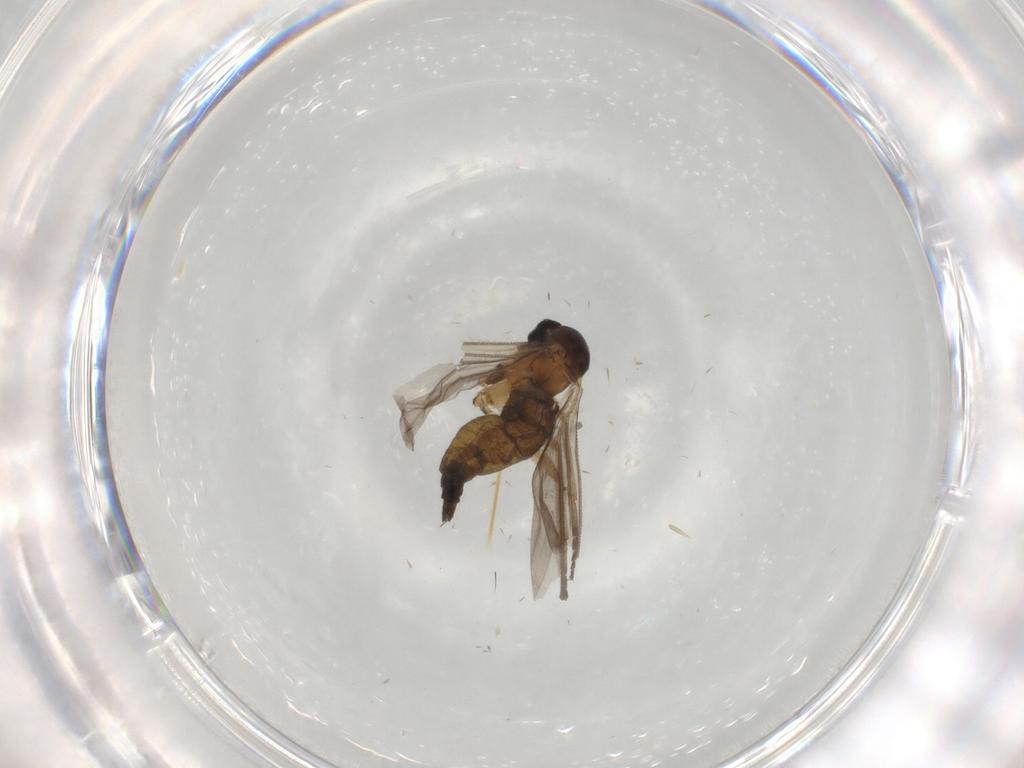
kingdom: Animalia
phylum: Arthropoda
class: Insecta
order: Diptera
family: Sciaridae
